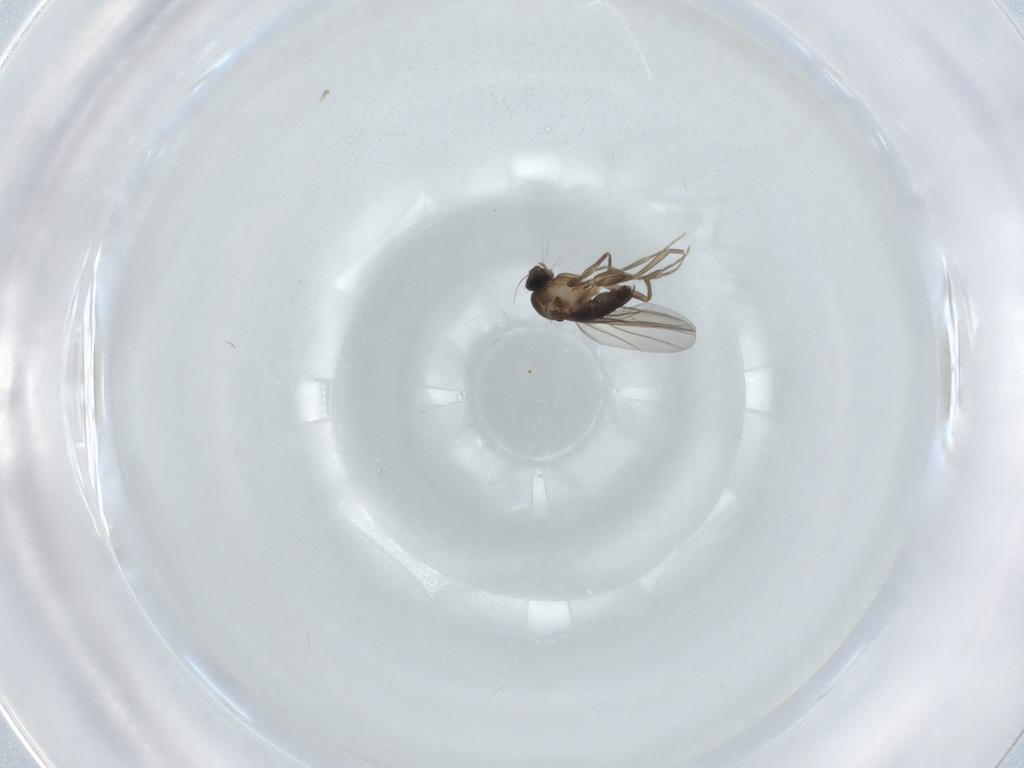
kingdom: Animalia
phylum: Arthropoda
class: Insecta
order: Diptera
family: Phoridae
